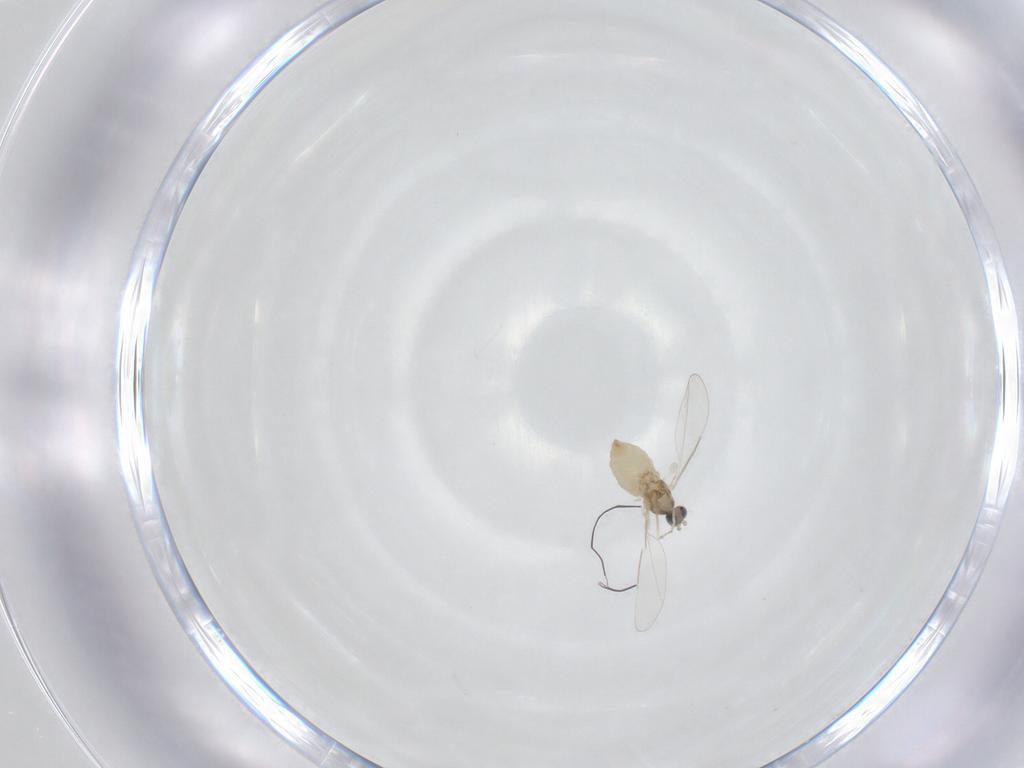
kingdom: Animalia
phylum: Arthropoda
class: Insecta
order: Diptera
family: Cecidomyiidae
